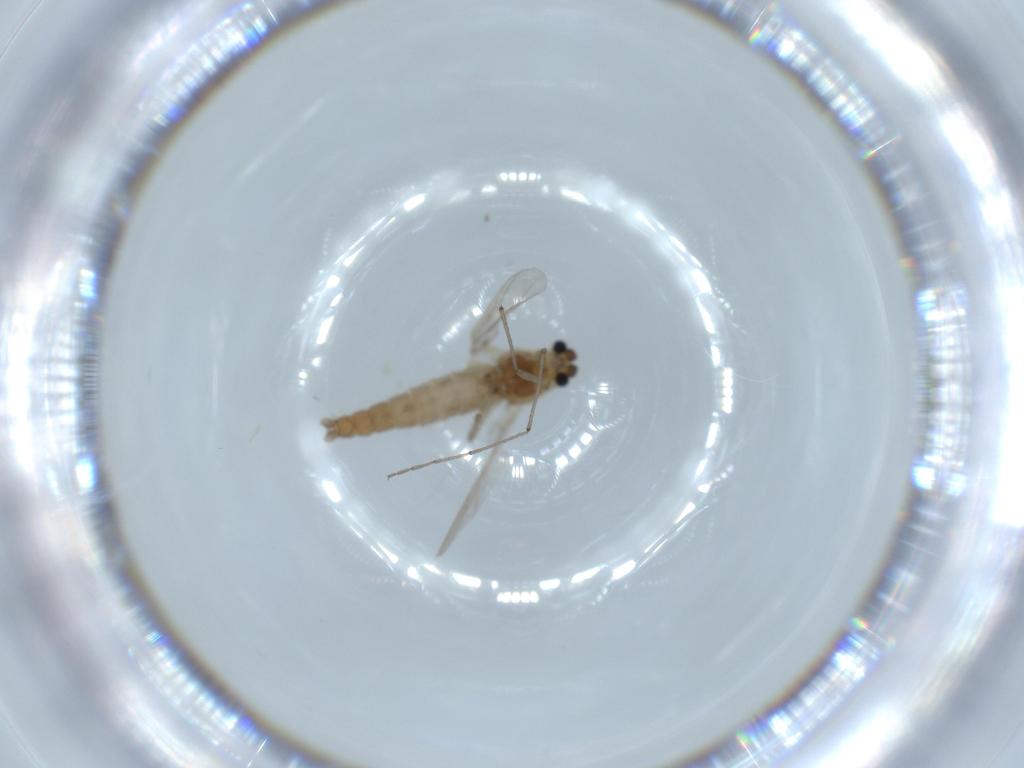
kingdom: Animalia
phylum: Arthropoda
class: Insecta
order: Diptera
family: Chironomidae
